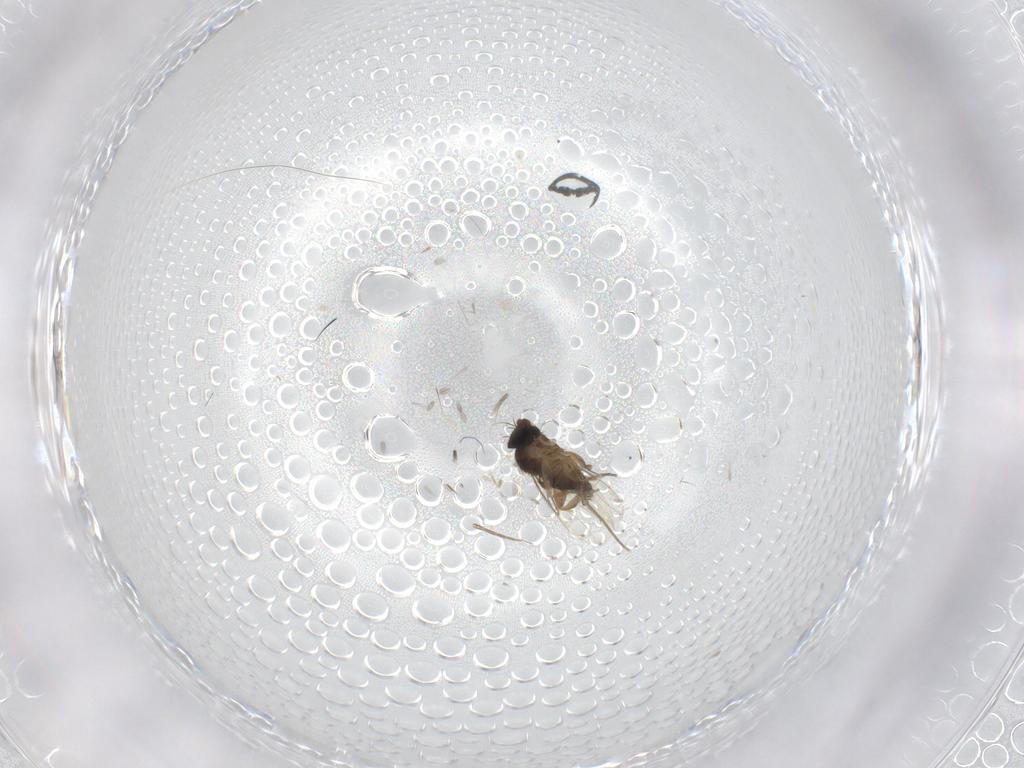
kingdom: Animalia
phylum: Arthropoda
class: Insecta
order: Diptera
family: Phoridae
